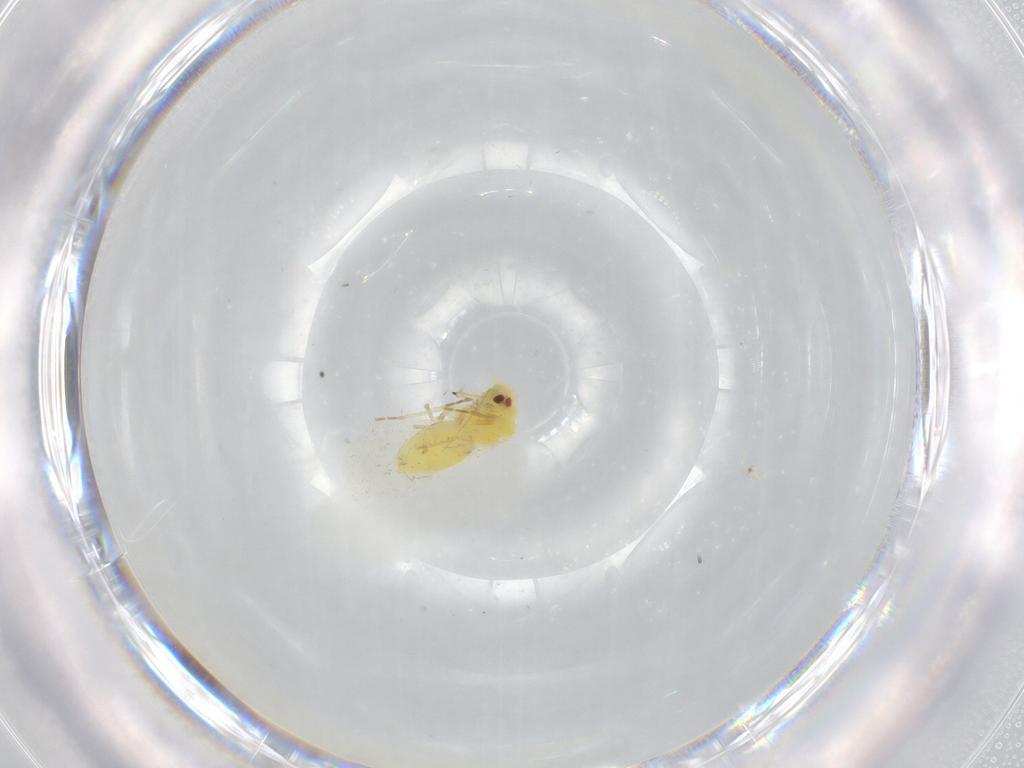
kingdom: Animalia
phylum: Arthropoda
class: Insecta
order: Hemiptera
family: Aleyrodidae
